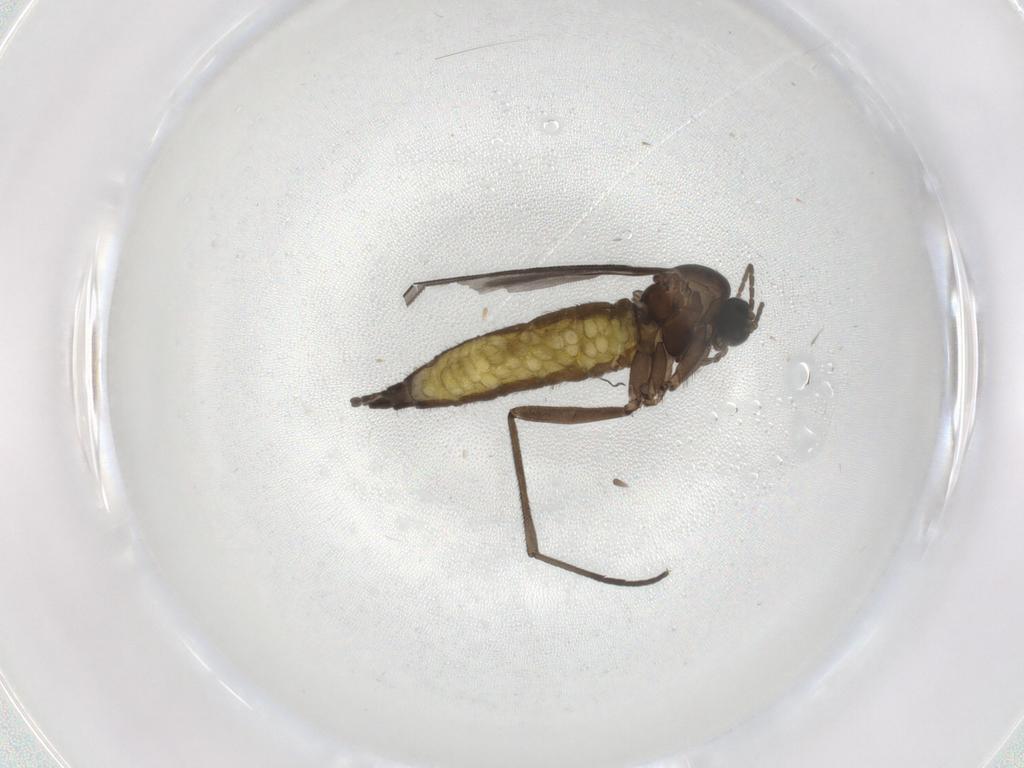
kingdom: Animalia
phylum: Arthropoda
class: Insecta
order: Diptera
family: Sciaridae
